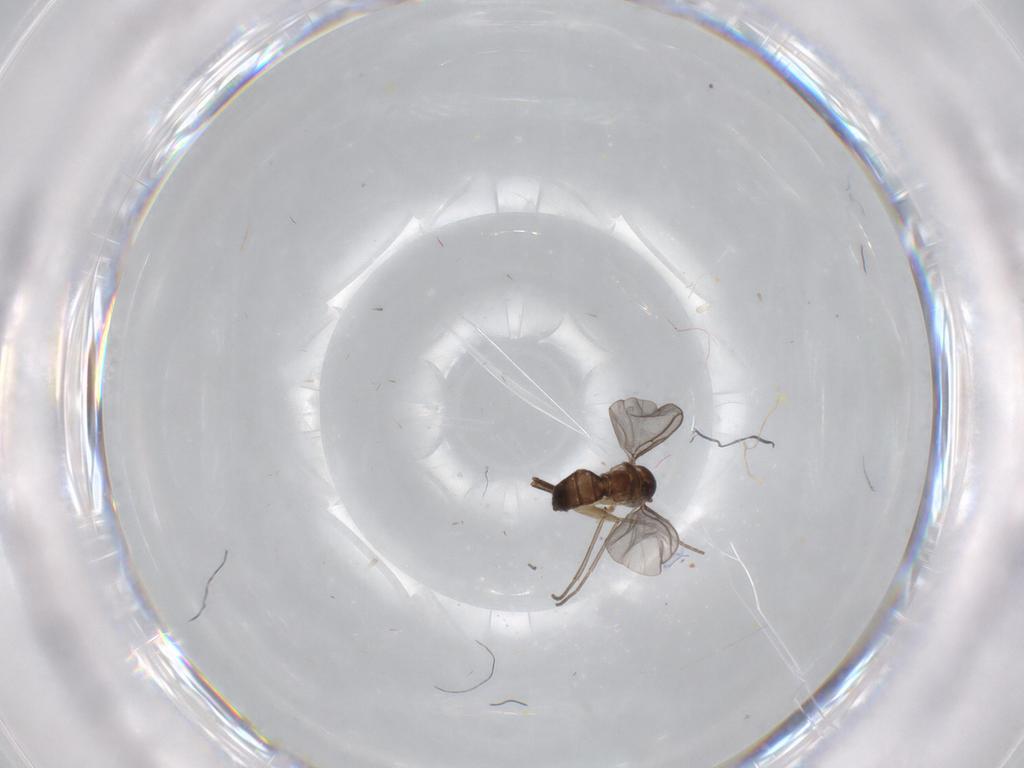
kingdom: Animalia
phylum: Arthropoda
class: Insecta
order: Diptera
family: Sciaridae
